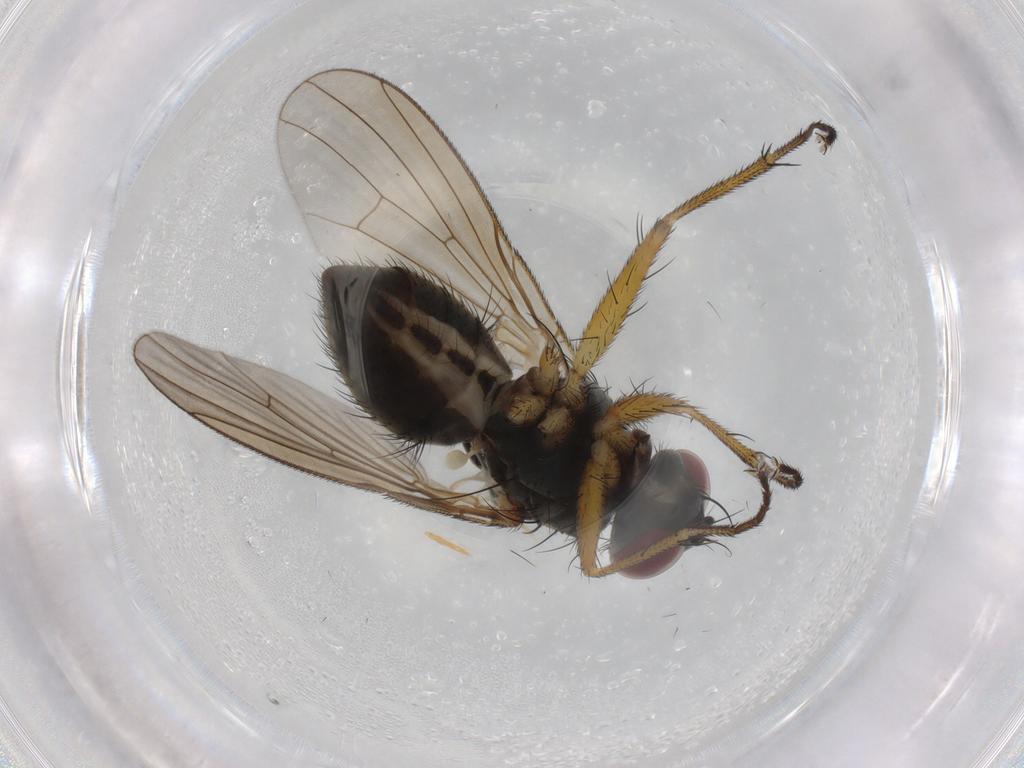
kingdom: Animalia
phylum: Arthropoda
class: Insecta
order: Diptera
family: Muscidae
